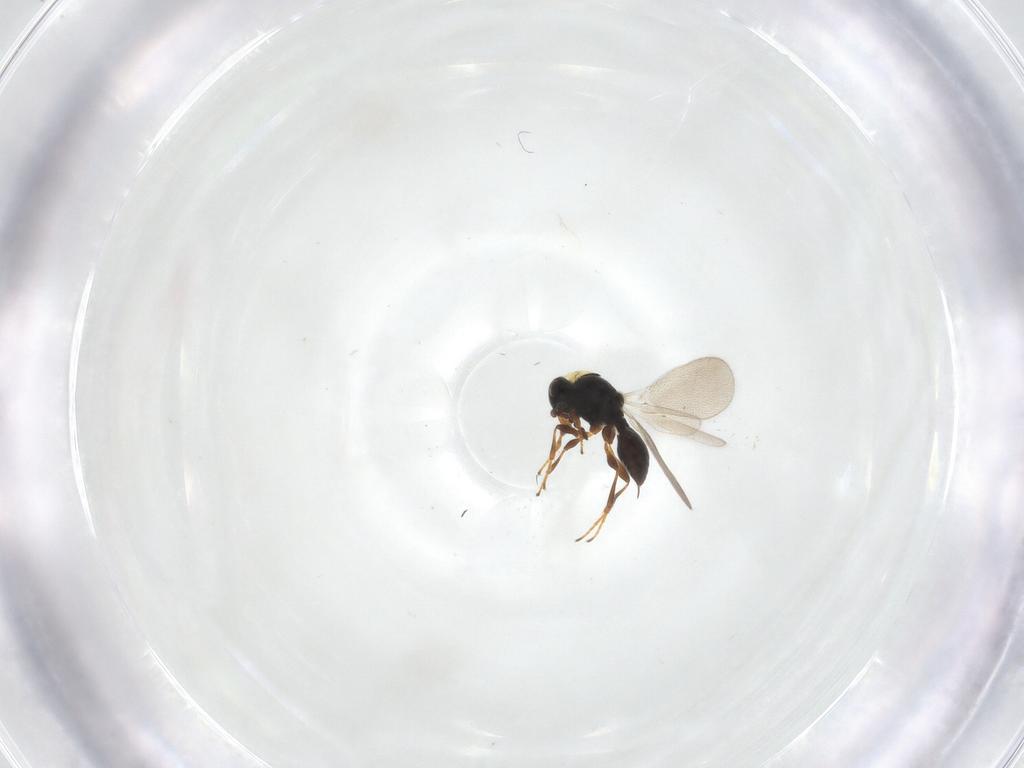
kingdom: Animalia
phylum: Arthropoda
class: Insecta
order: Hymenoptera
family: Platygastridae
